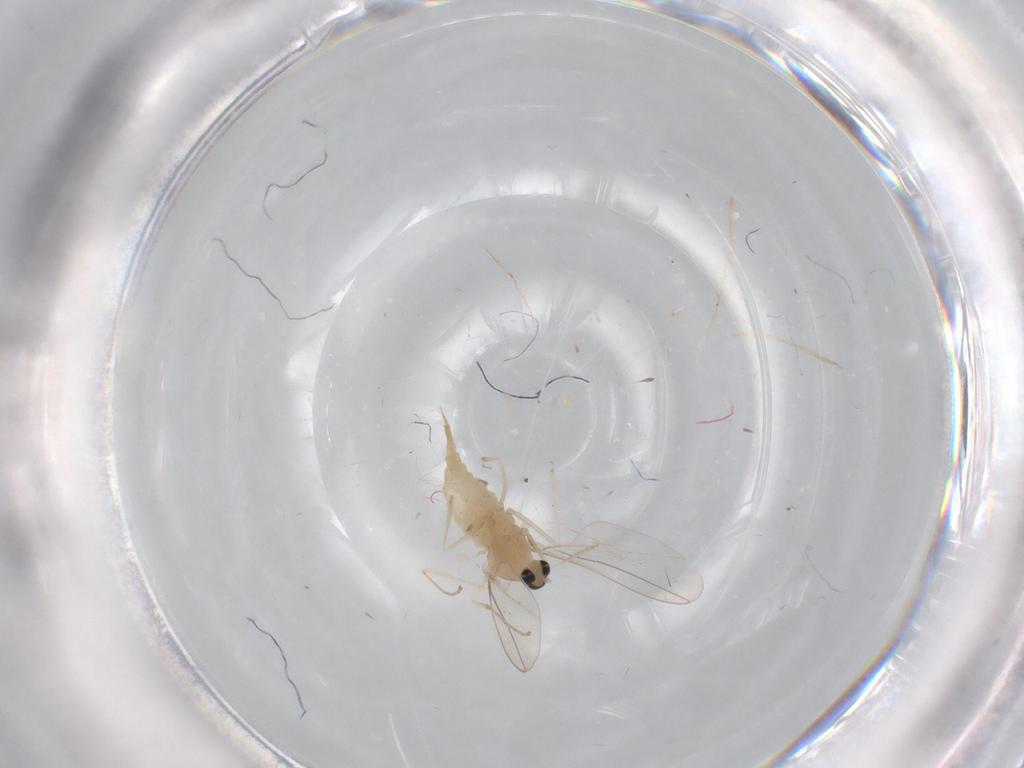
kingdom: Animalia
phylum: Arthropoda
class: Insecta
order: Diptera
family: Cecidomyiidae
